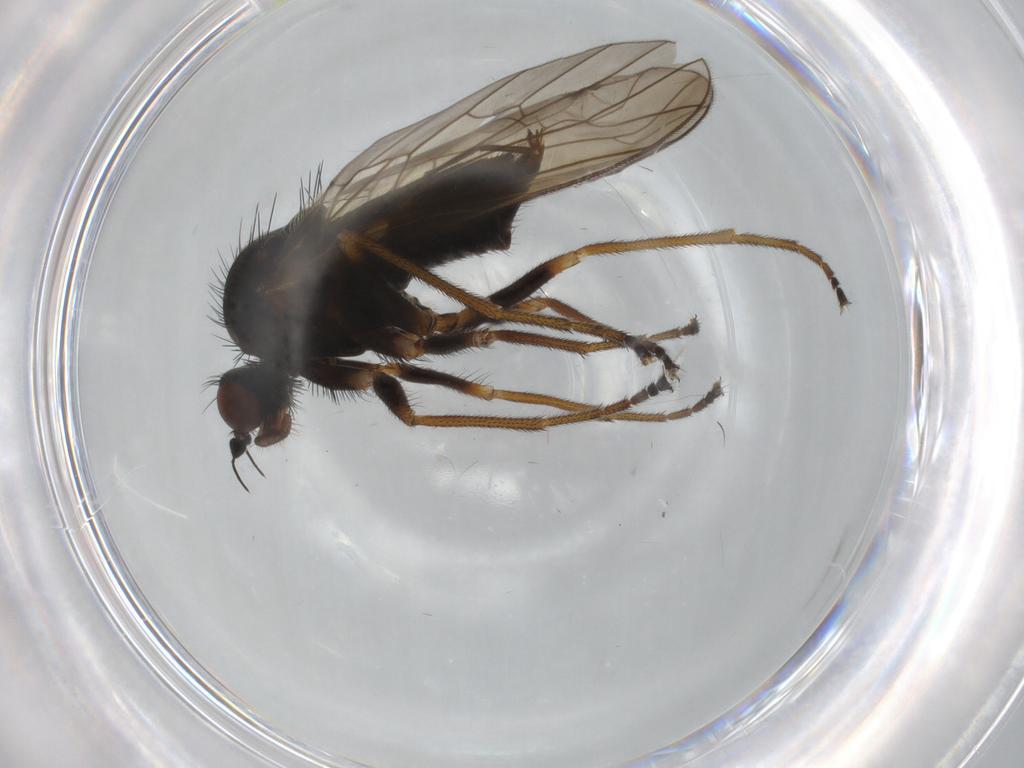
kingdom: Animalia
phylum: Arthropoda
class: Insecta
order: Diptera
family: Brachystomatidae
